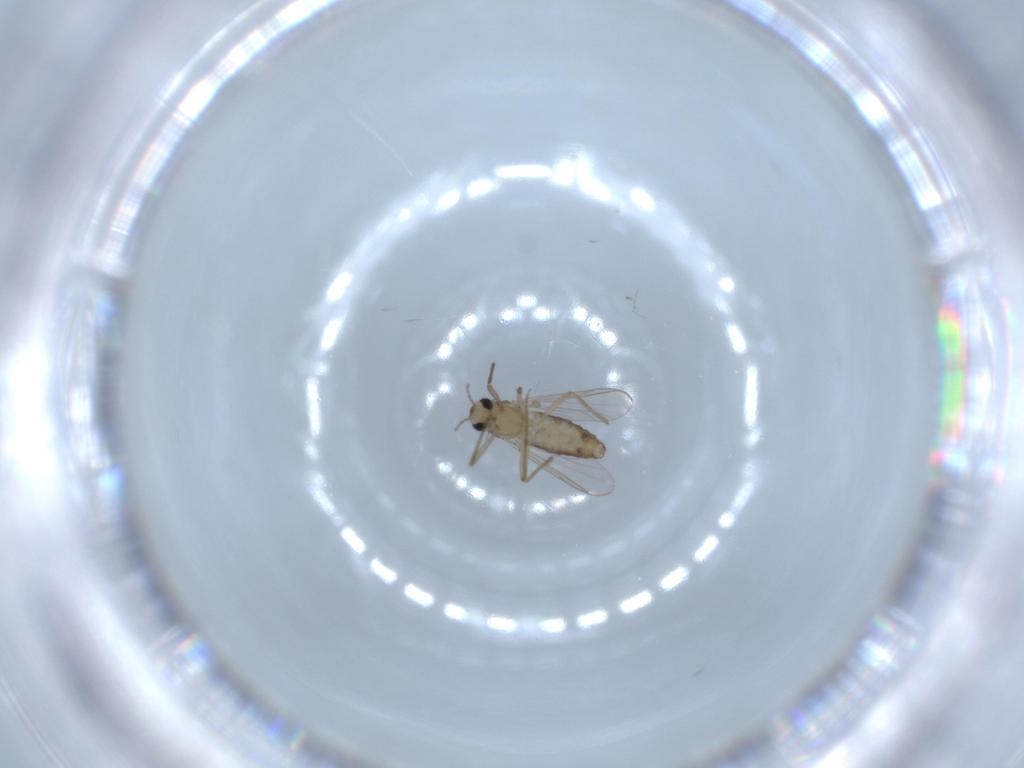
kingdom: Animalia
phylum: Arthropoda
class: Insecta
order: Diptera
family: Chironomidae
